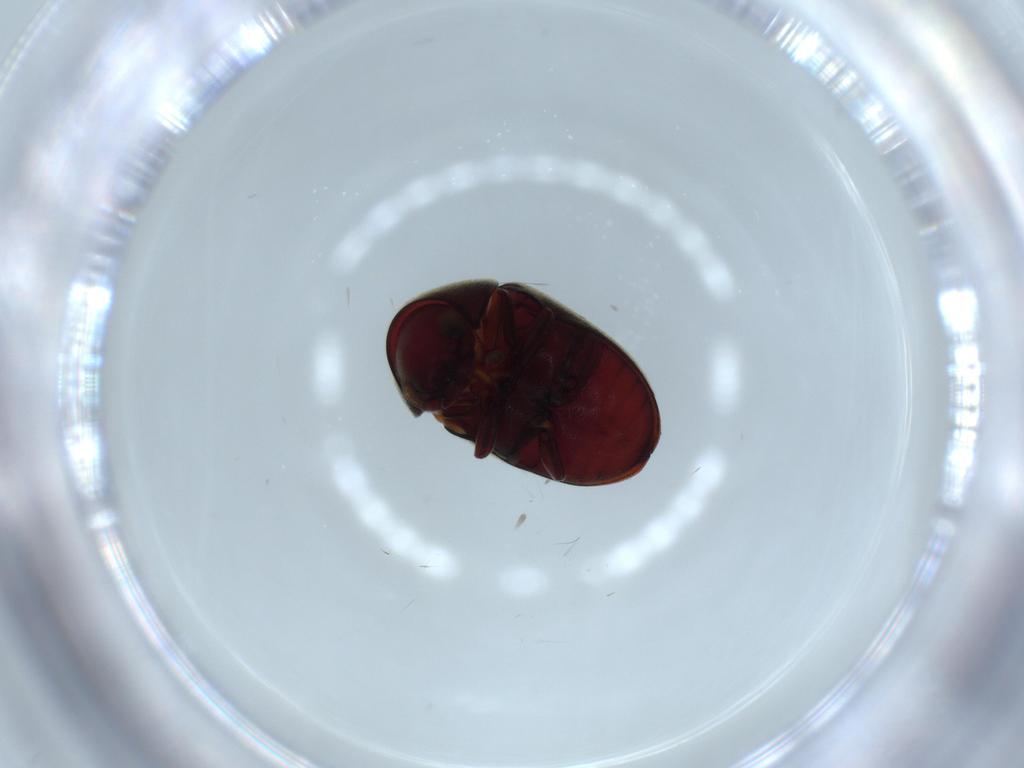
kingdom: Animalia
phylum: Arthropoda
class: Insecta
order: Coleoptera
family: Ptinidae
